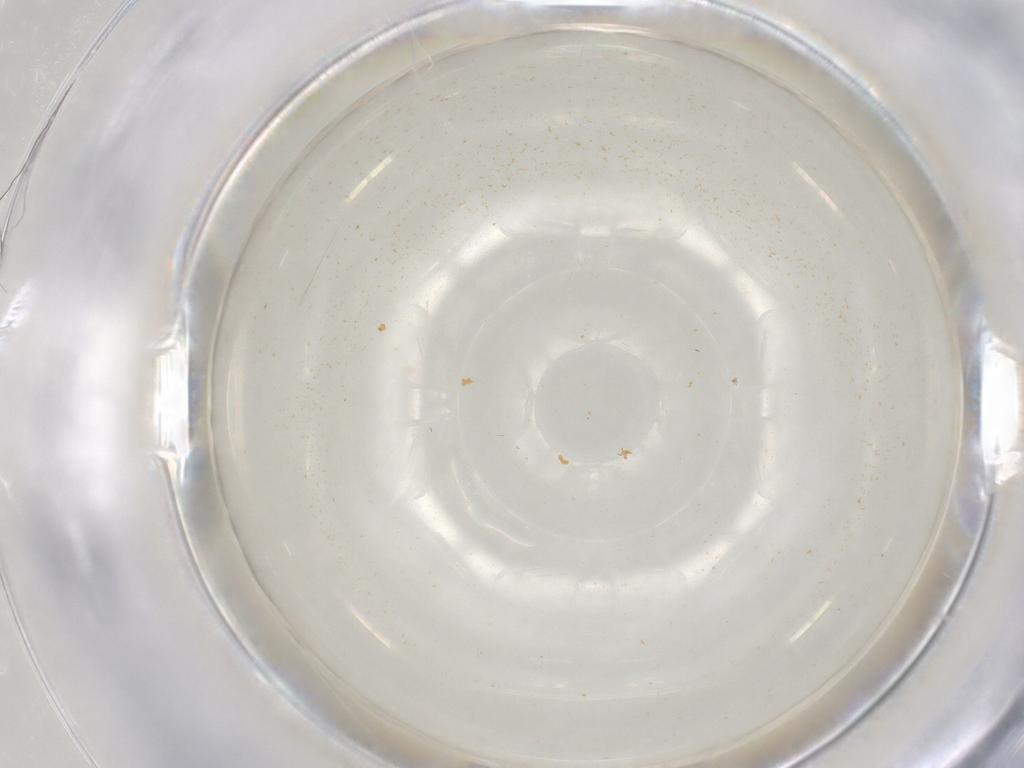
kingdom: Animalia
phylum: Arthropoda
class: Insecta
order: Diptera
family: Sciaridae
